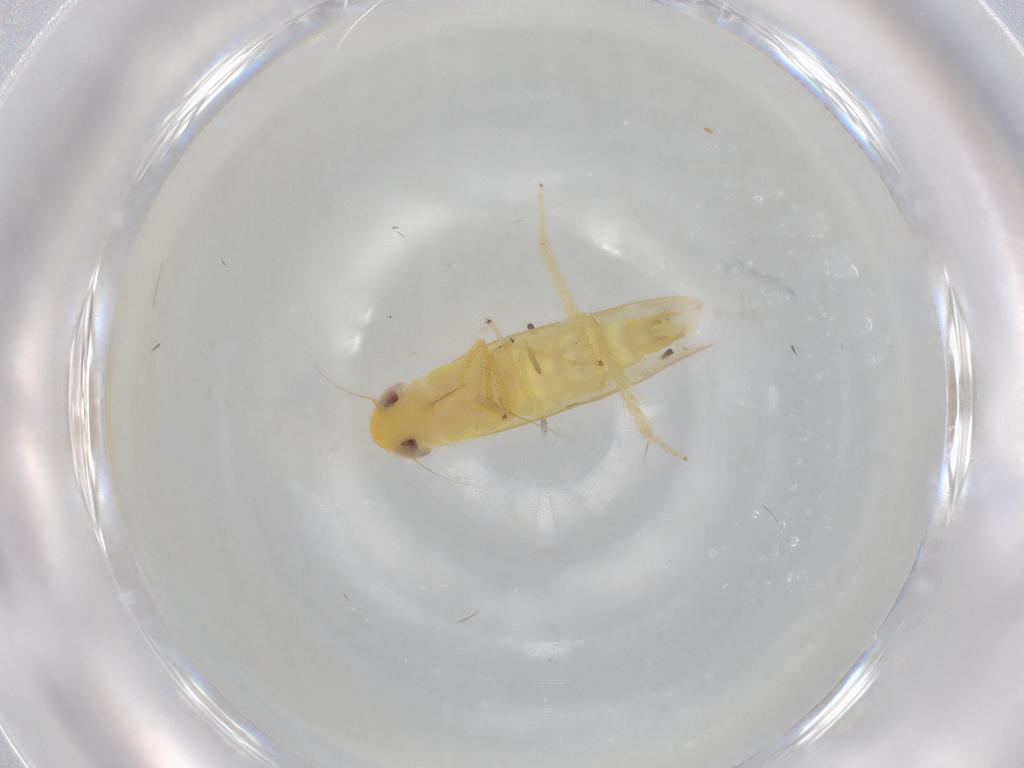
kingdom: Animalia
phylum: Arthropoda
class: Insecta
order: Hemiptera
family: Cicadellidae
